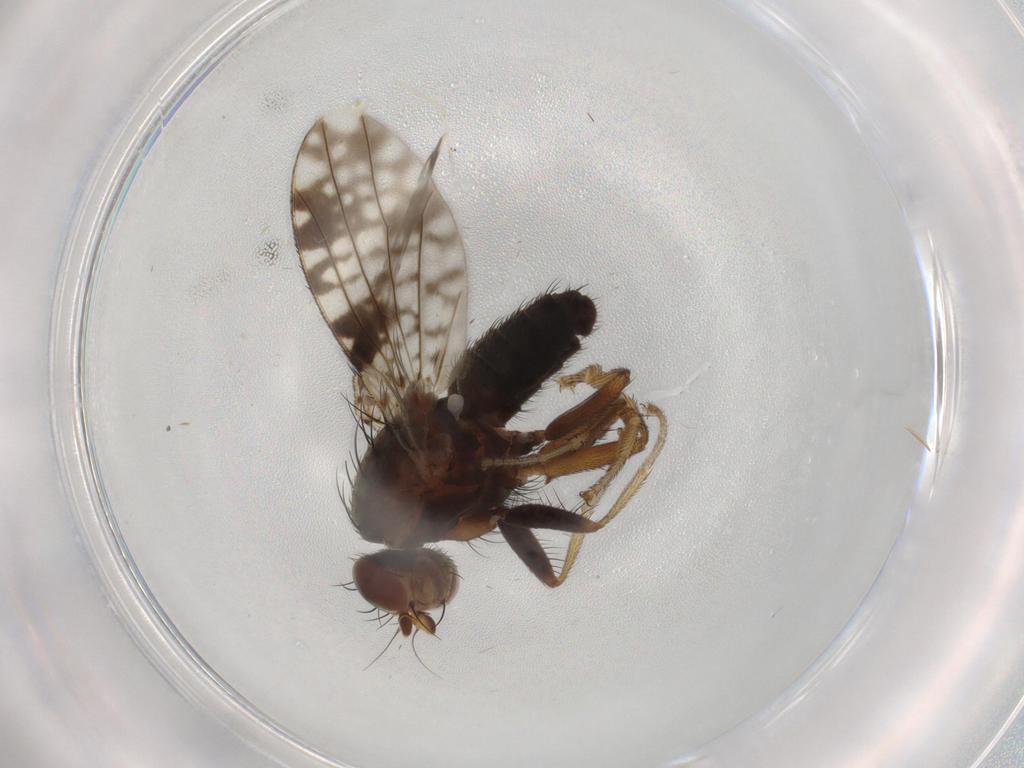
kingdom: Animalia
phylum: Arthropoda
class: Insecta
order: Diptera
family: Tephritidae
